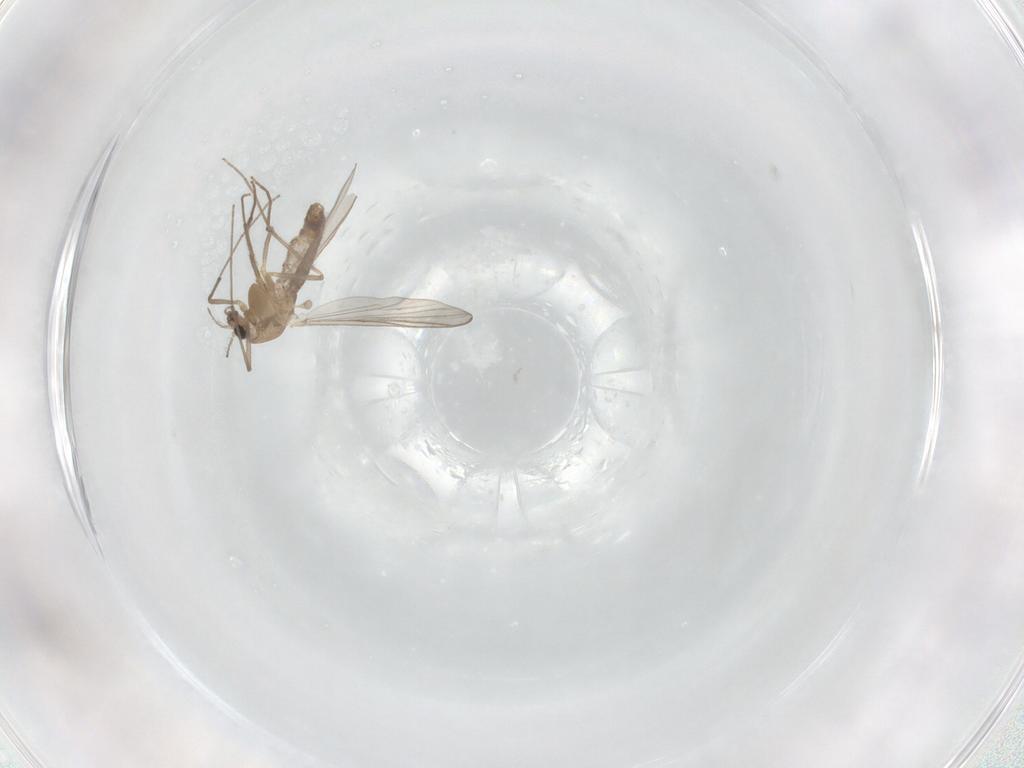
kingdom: Animalia
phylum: Arthropoda
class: Insecta
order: Diptera
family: Chironomidae
